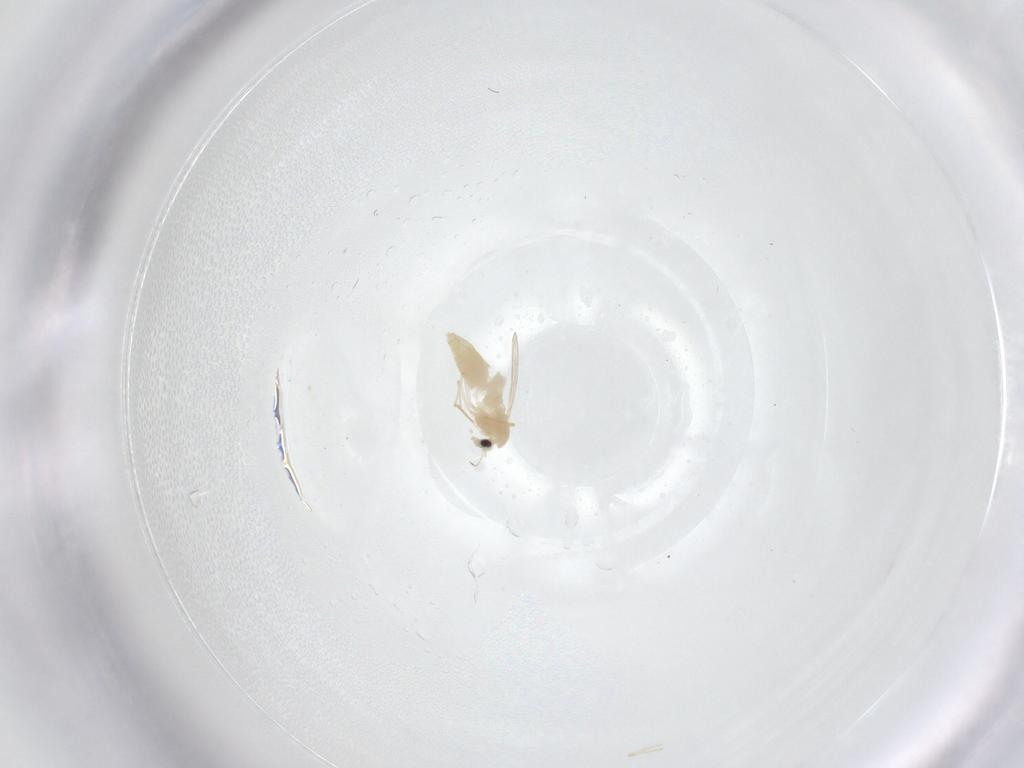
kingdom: Animalia
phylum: Arthropoda
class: Insecta
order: Diptera
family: Chironomidae
